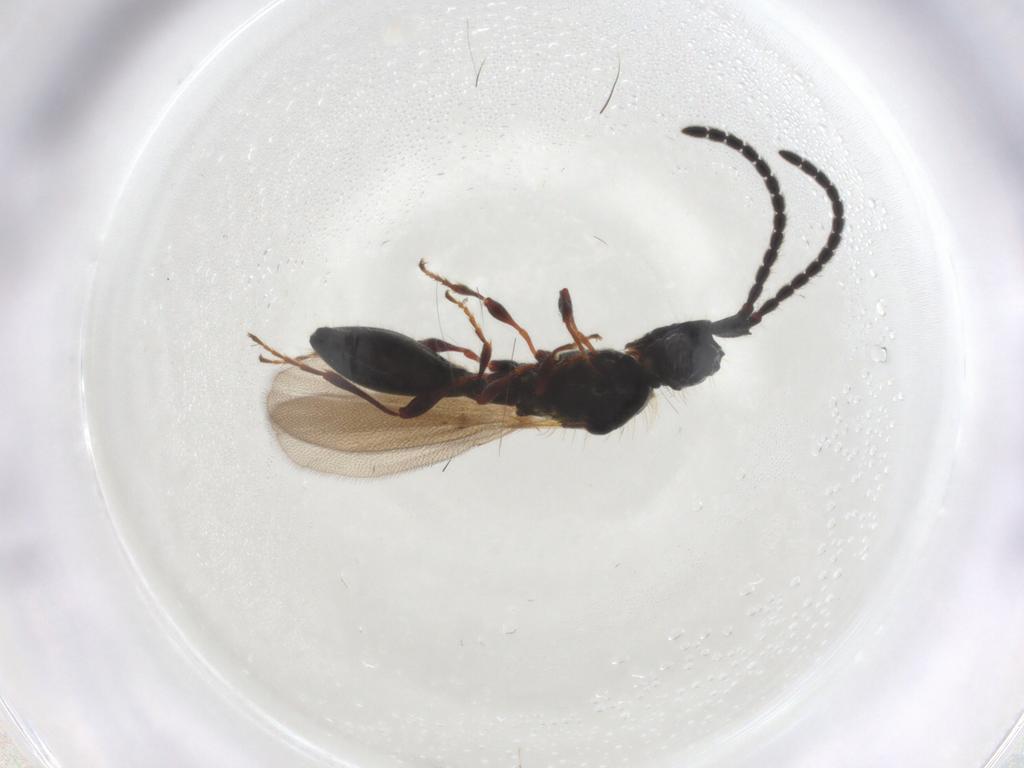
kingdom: Animalia
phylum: Arthropoda
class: Insecta
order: Hymenoptera
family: Diapriidae
